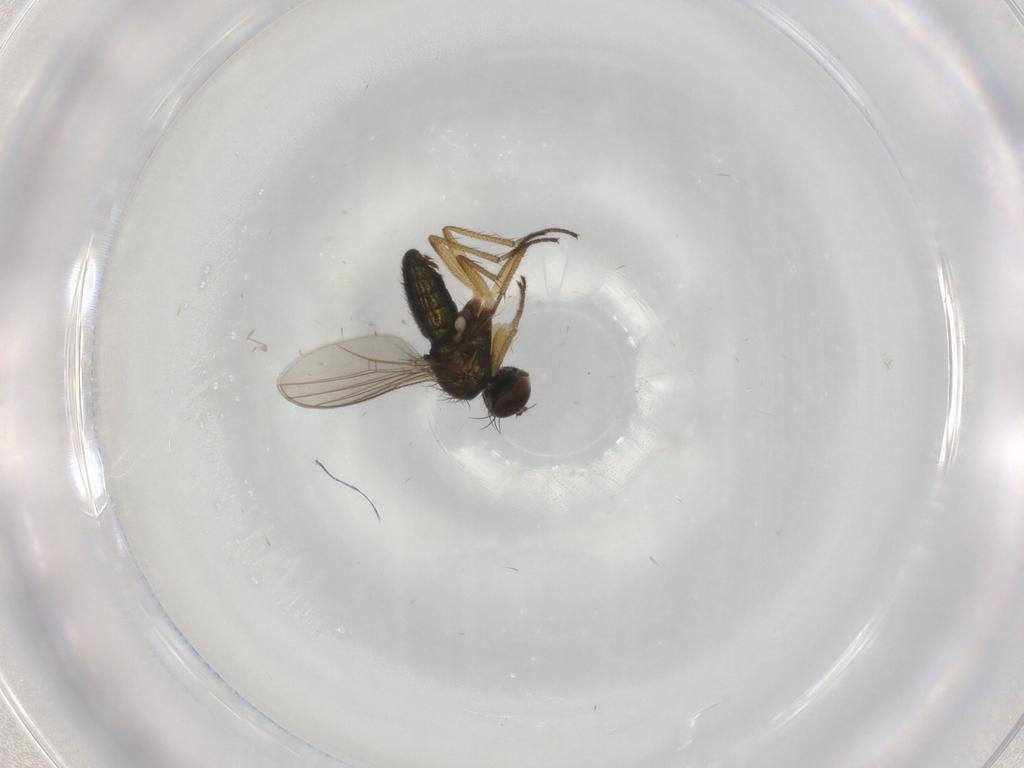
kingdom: Animalia
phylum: Arthropoda
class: Insecta
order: Diptera
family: Dolichopodidae
